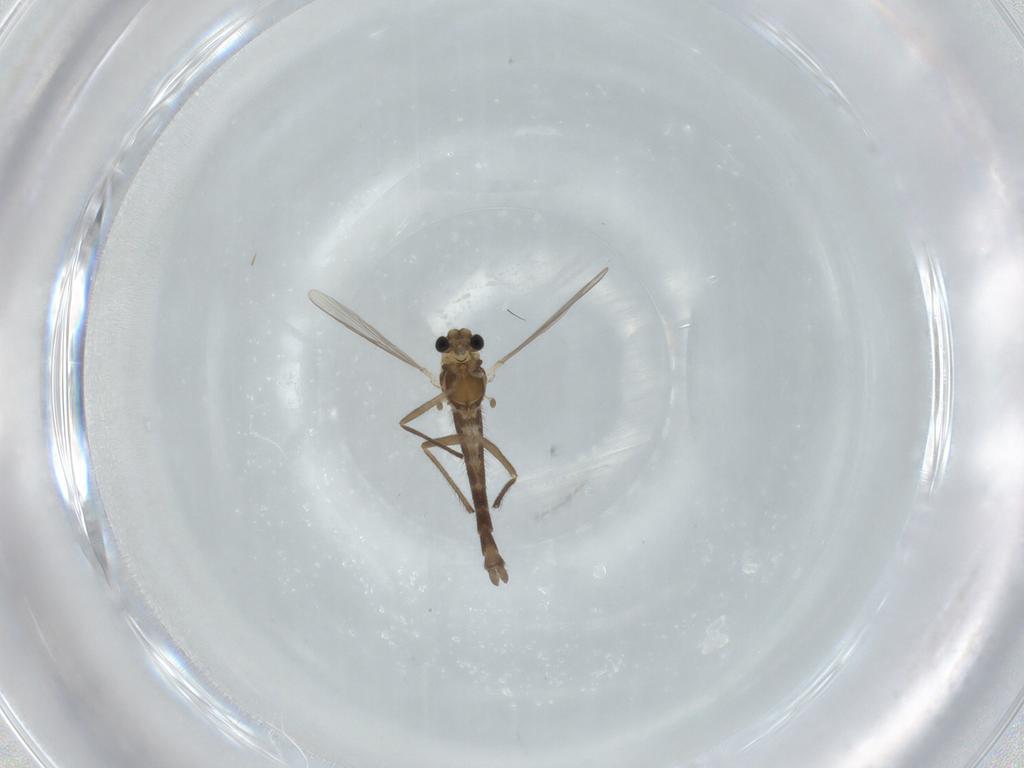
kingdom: Animalia
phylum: Arthropoda
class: Insecta
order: Diptera
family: Chironomidae
